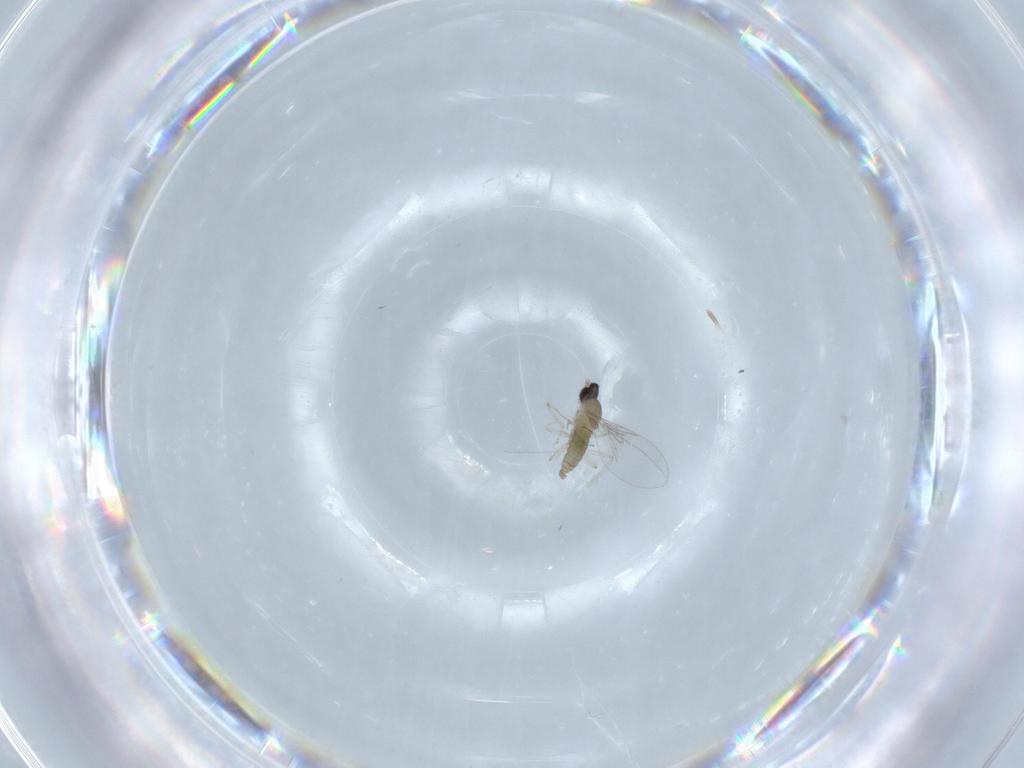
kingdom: Animalia
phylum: Arthropoda
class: Insecta
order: Diptera
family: Cecidomyiidae
